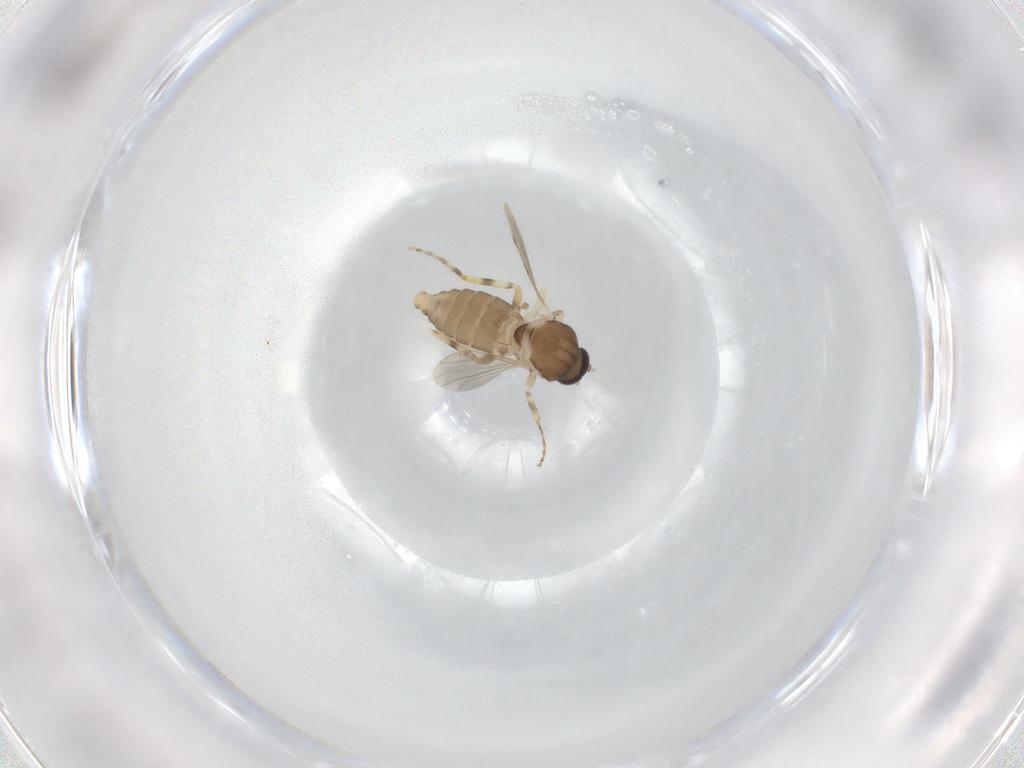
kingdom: Animalia
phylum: Arthropoda
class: Insecta
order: Diptera
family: Ceratopogonidae
